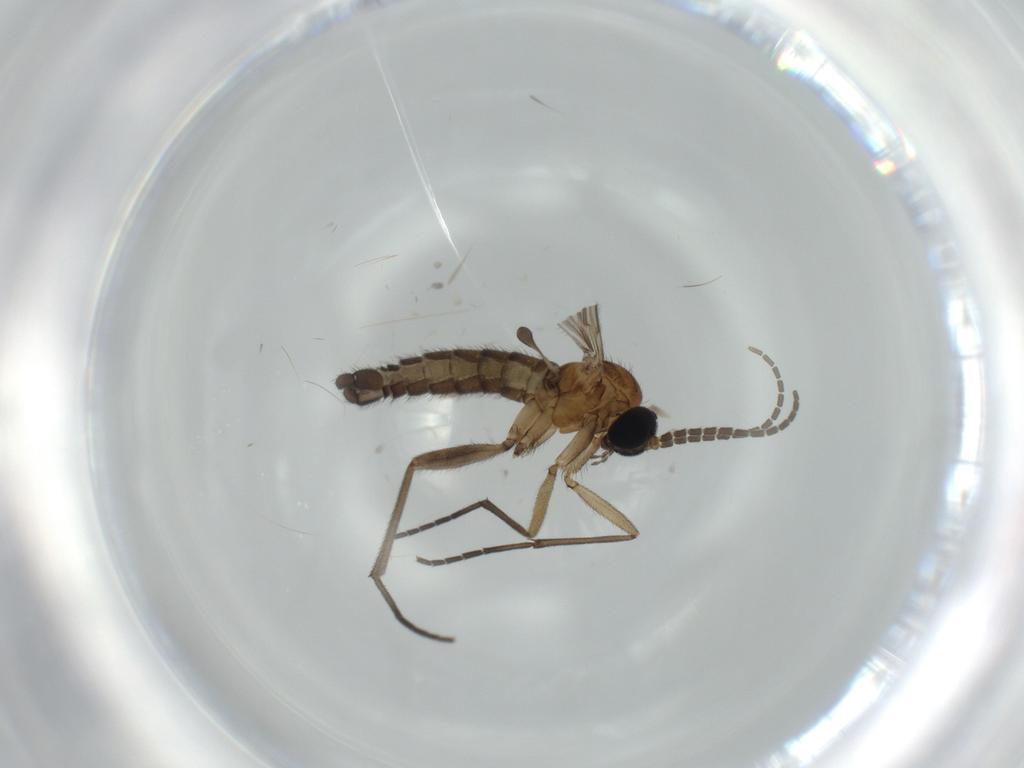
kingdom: Animalia
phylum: Arthropoda
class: Insecta
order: Diptera
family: Sciaridae
